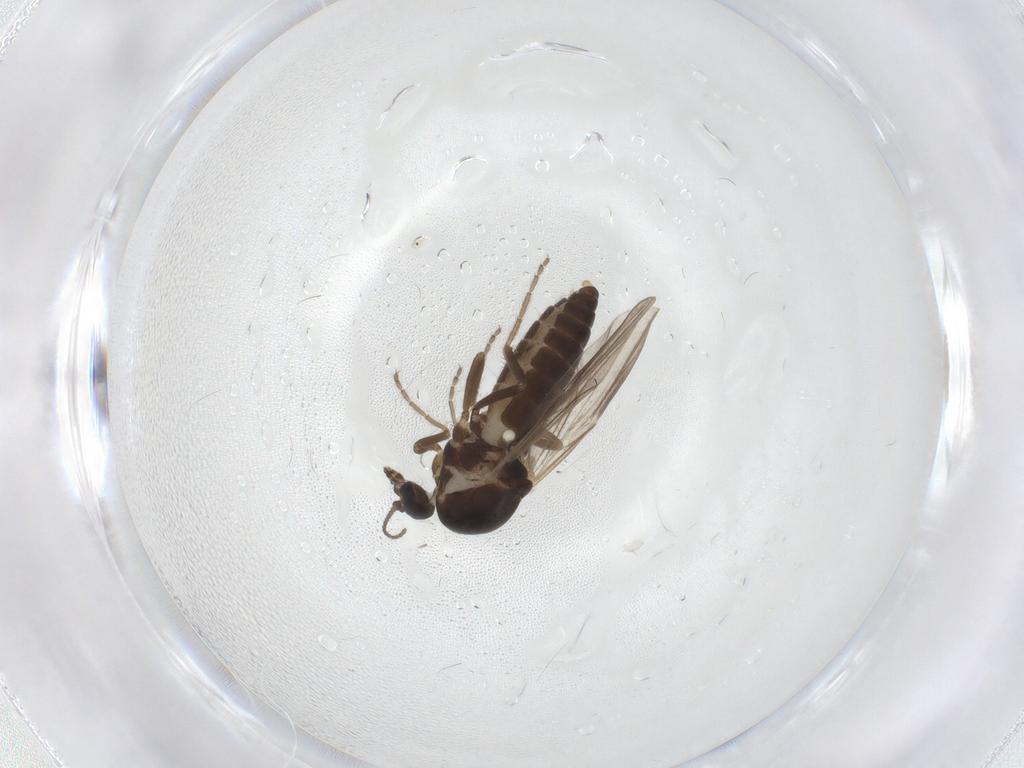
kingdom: Animalia
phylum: Arthropoda
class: Insecta
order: Diptera
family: Ceratopogonidae
